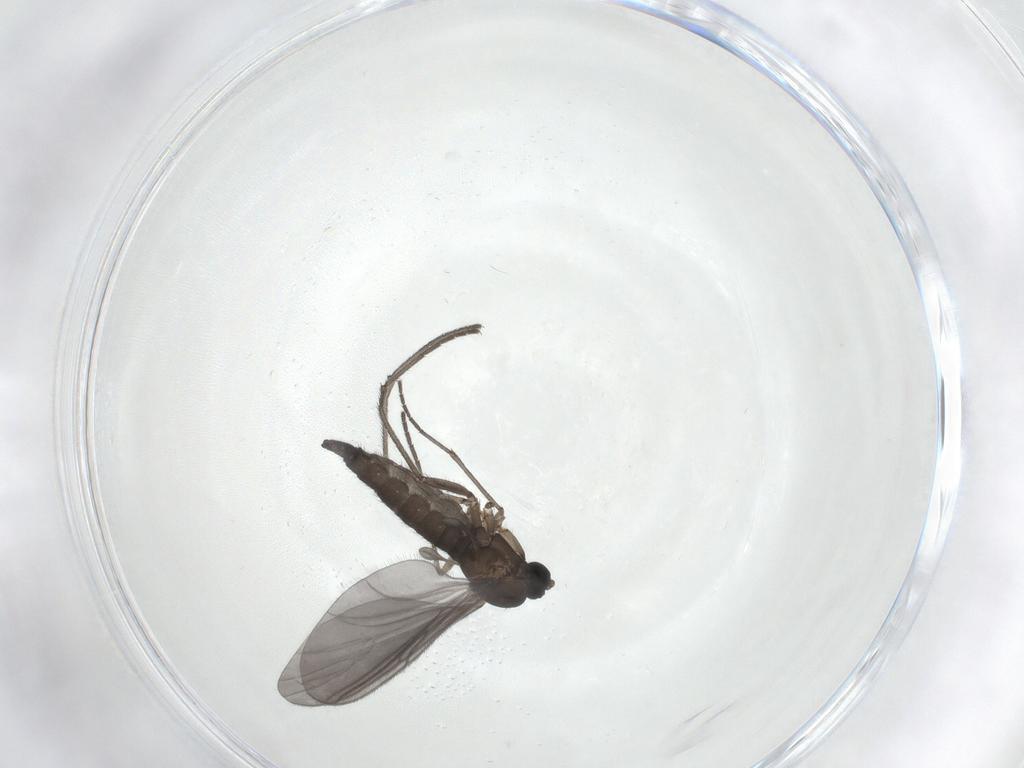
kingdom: Animalia
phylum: Arthropoda
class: Insecta
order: Diptera
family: Sciaridae
